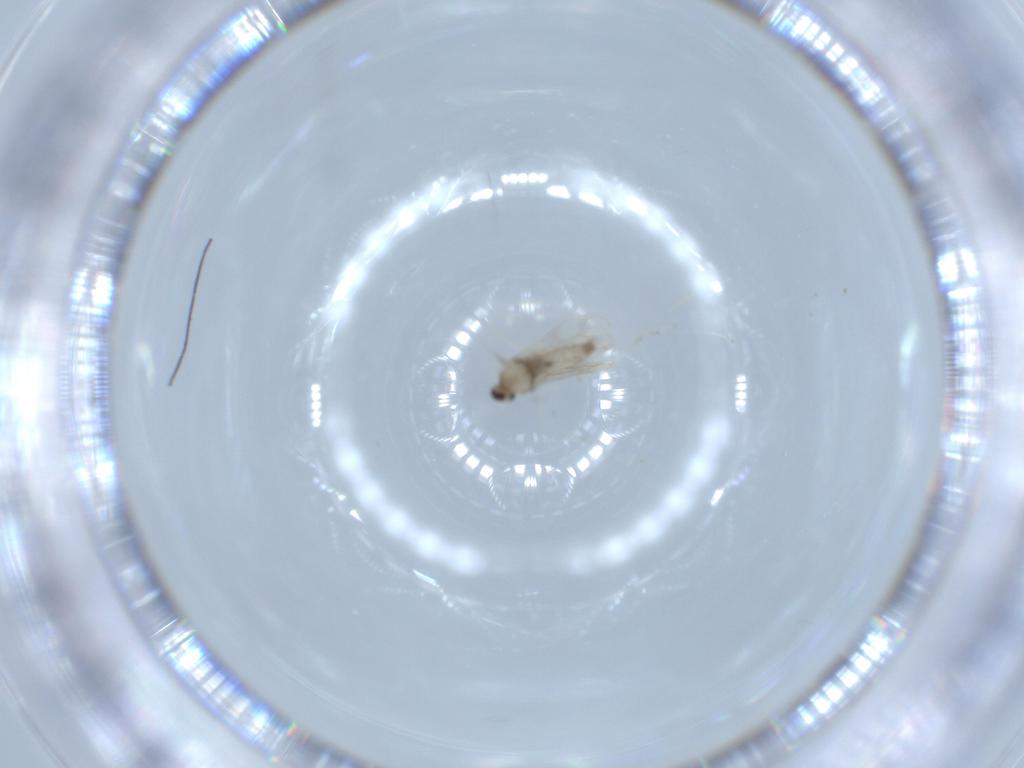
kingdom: Animalia
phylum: Arthropoda
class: Insecta
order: Diptera
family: Cecidomyiidae
